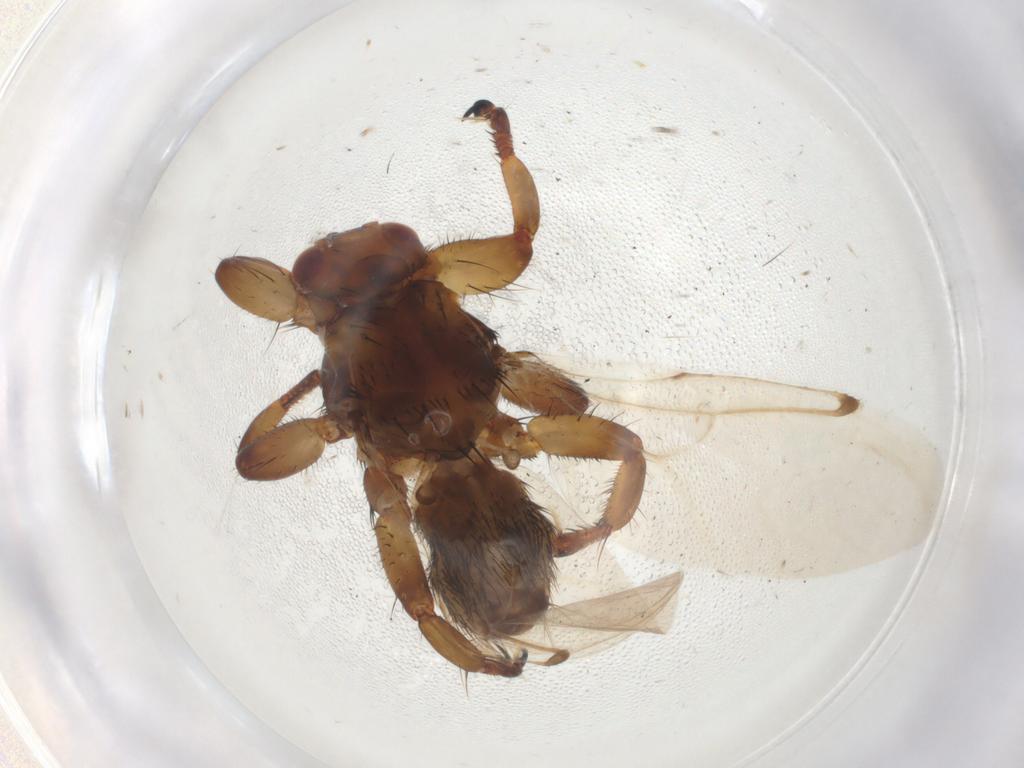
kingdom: Animalia
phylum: Arthropoda
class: Insecta
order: Diptera
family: Hippoboscidae
